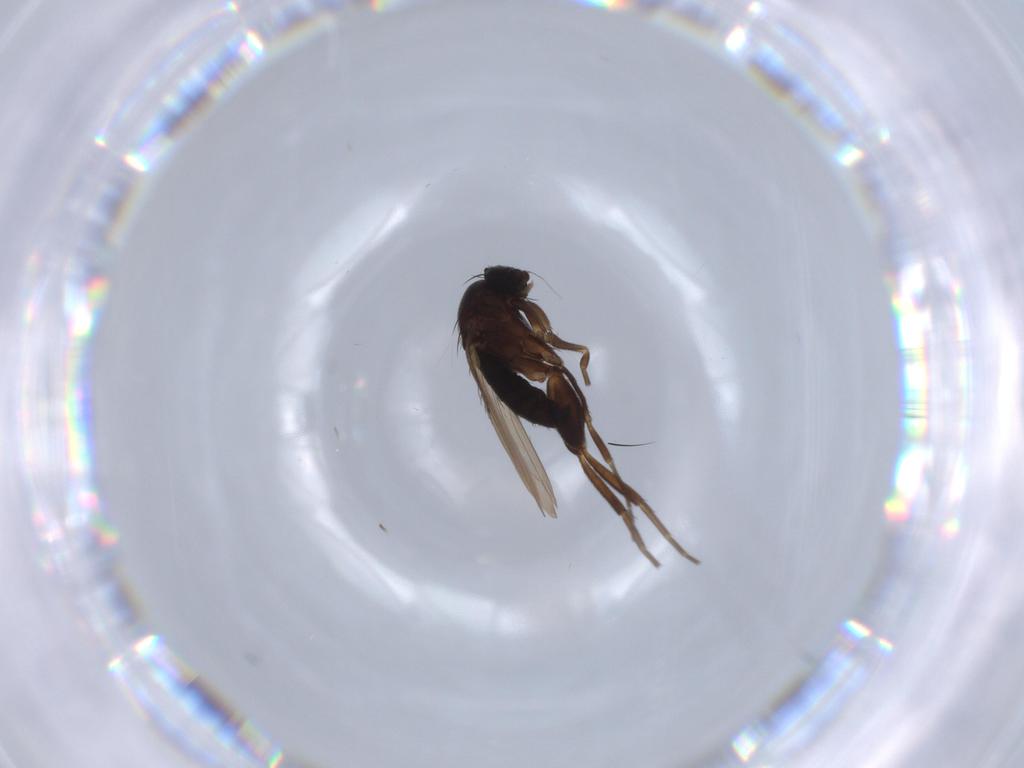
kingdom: Animalia
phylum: Arthropoda
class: Insecta
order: Diptera
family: Phoridae
